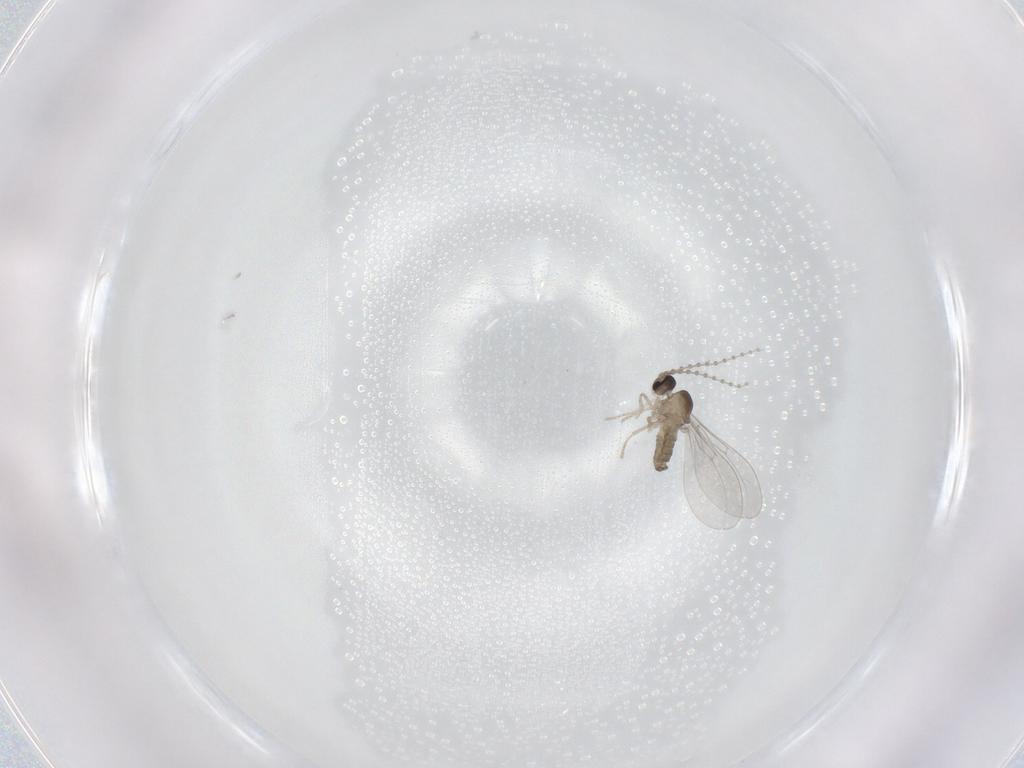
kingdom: Animalia
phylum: Arthropoda
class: Insecta
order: Diptera
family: Cecidomyiidae
